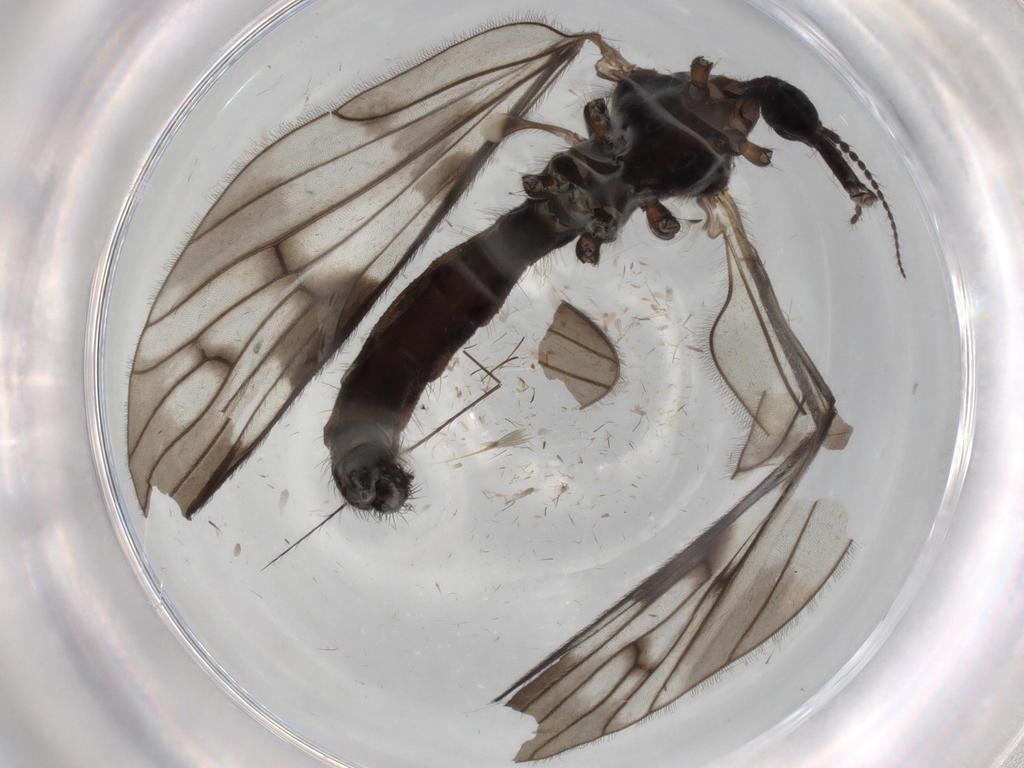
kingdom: Animalia
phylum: Arthropoda
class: Insecta
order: Diptera
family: Limoniidae
